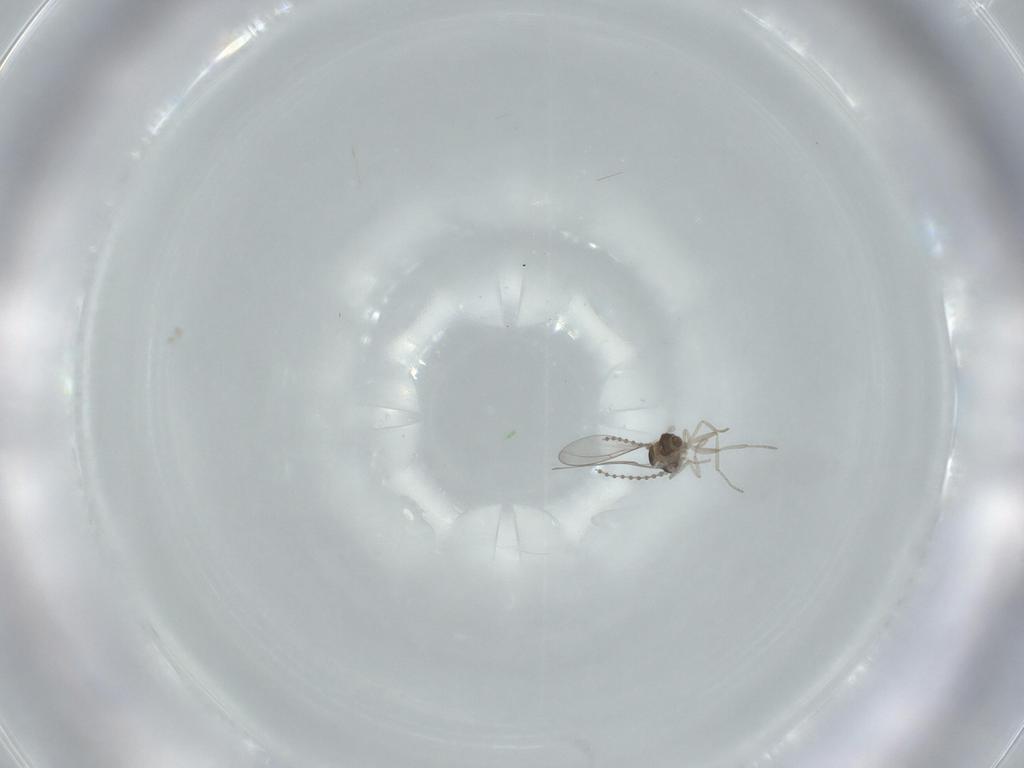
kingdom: Animalia
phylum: Arthropoda
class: Insecta
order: Diptera
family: Cecidomyiidae
